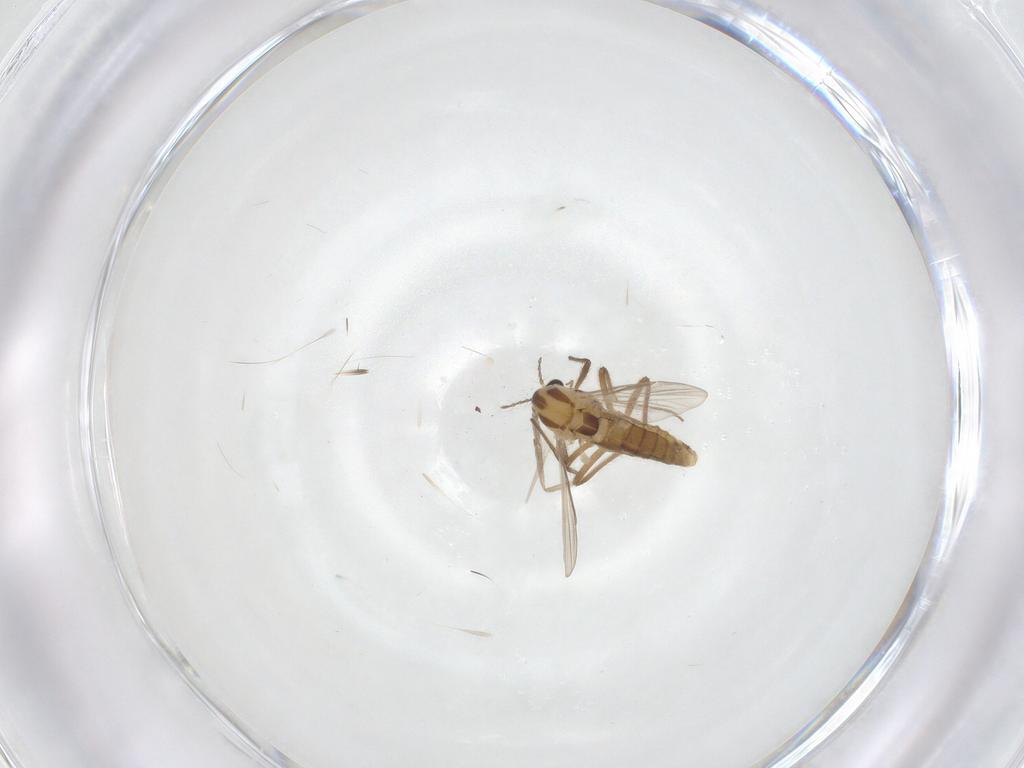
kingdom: Animalia
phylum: Arthropoda
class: Insecta
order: Diptera
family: Chironomidae
